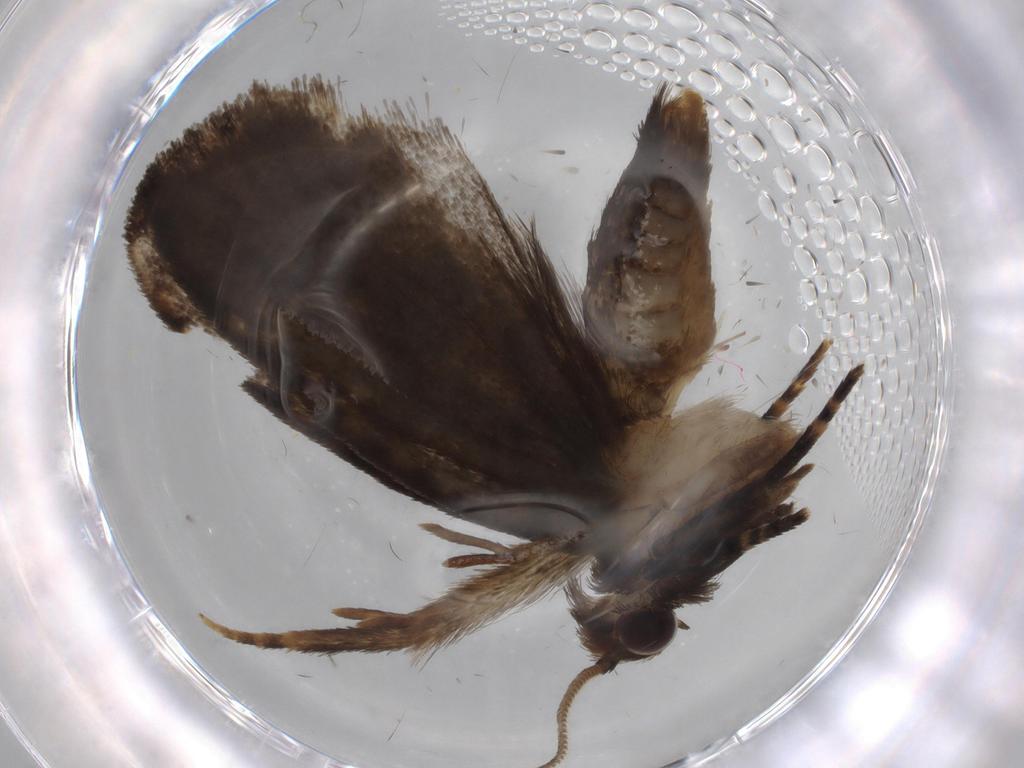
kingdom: Animalia
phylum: Arthropoda
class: Insecta
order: Lepidoptera
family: Tineidae
